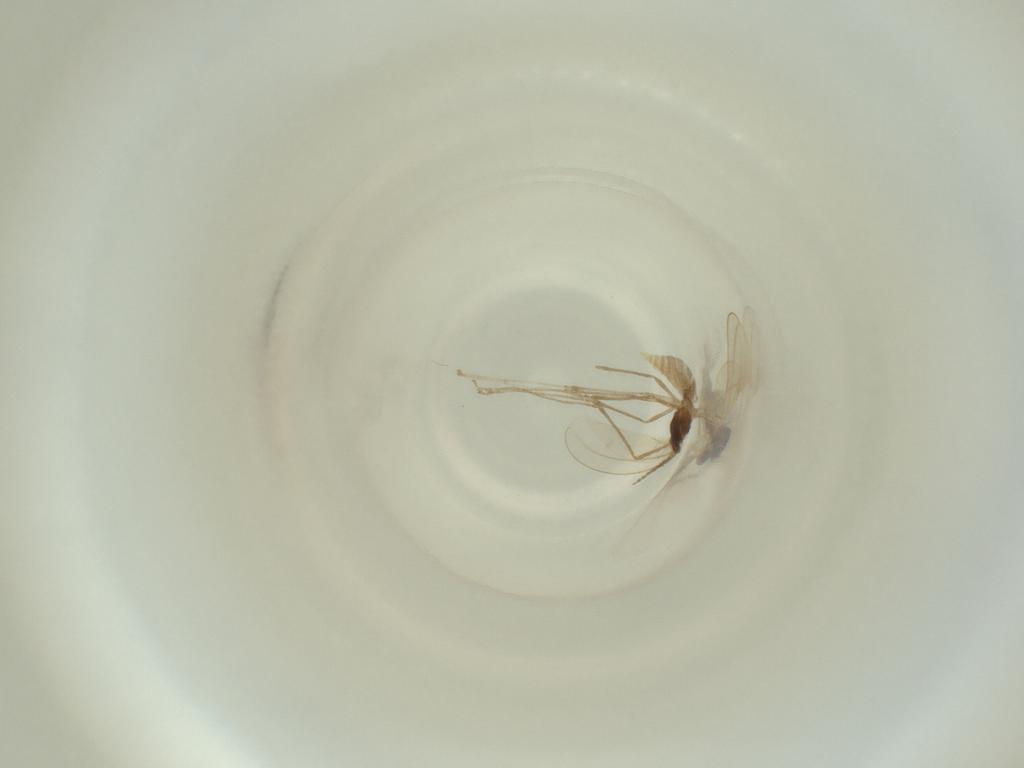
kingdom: Animalia
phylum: Arthropoda
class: Insecta
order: Diptera
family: Cecidomyiidae
